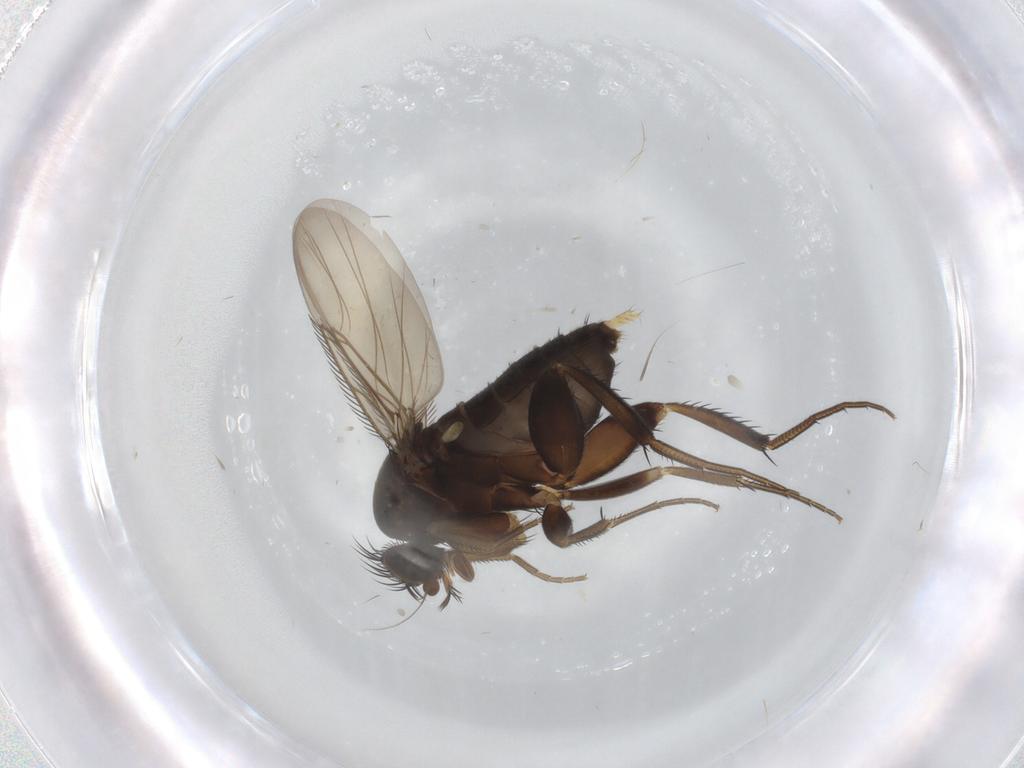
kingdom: Animalia
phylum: Arthropoda
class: Insecta
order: Diptera
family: Phoridae
